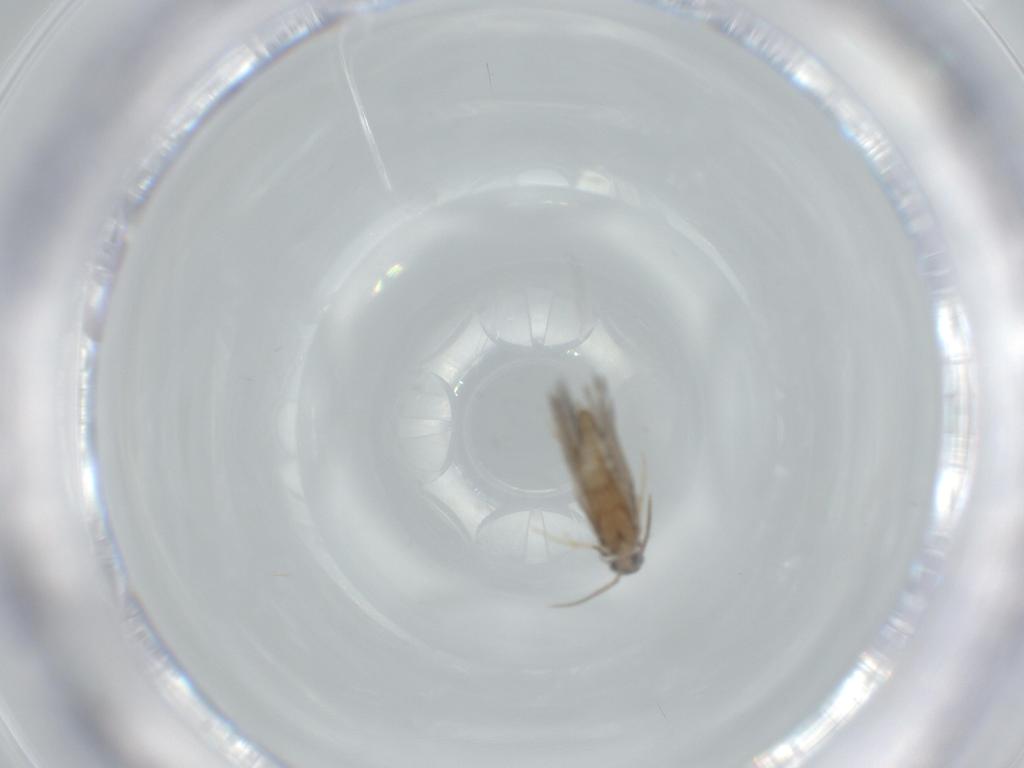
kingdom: Animalia
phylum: Arthropoda
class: Insecta
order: Trichoptera
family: Hydroptilidae
